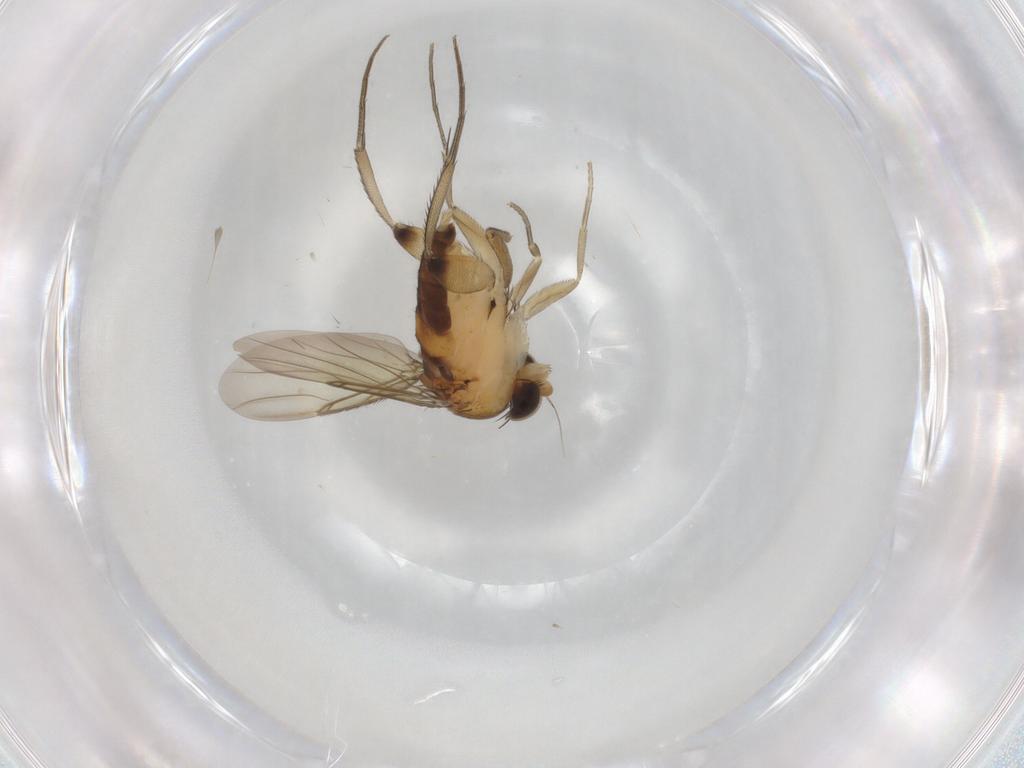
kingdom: Animalia
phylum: Arthropoda
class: Insecta
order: Diptera
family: Phoridae
